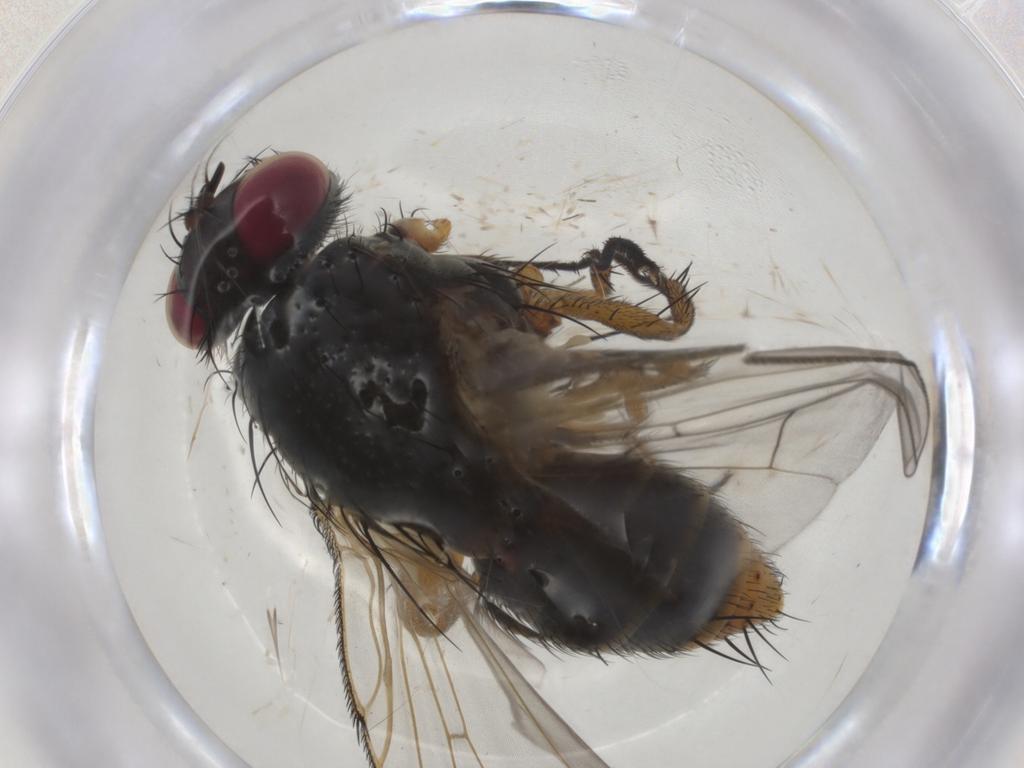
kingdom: Animalia
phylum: Arthropoda
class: Insecta
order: Diptera
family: Muscidae
